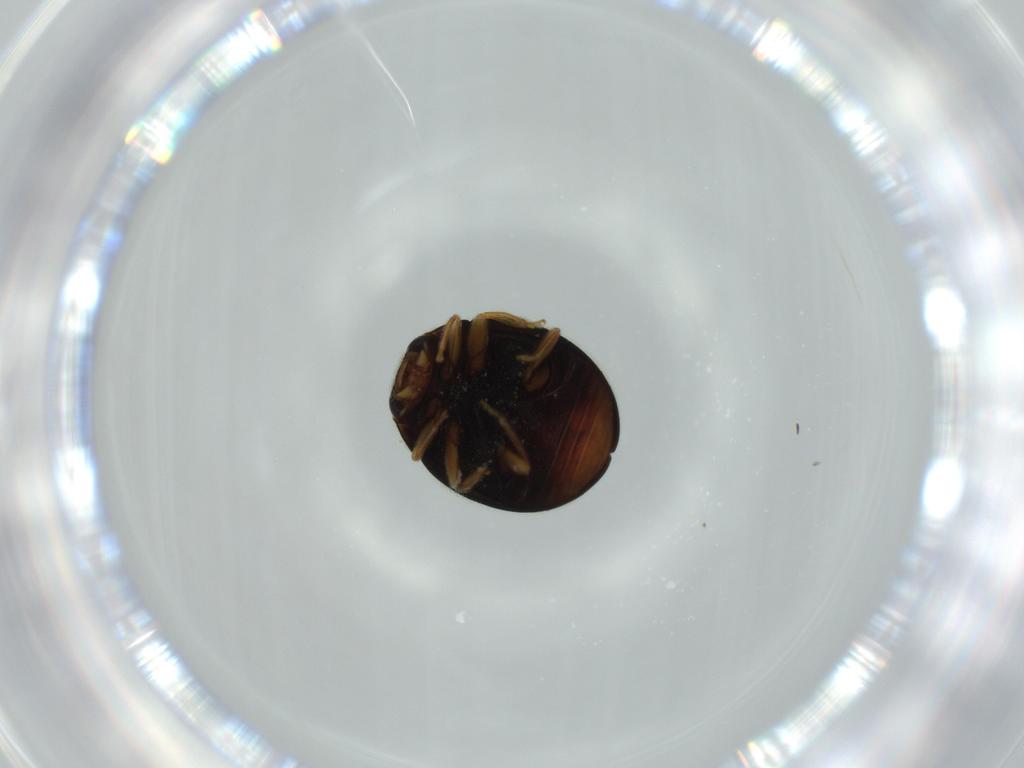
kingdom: Animalia
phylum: Arthropoda
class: Insecta
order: Coleoptera
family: Coccinellidae
